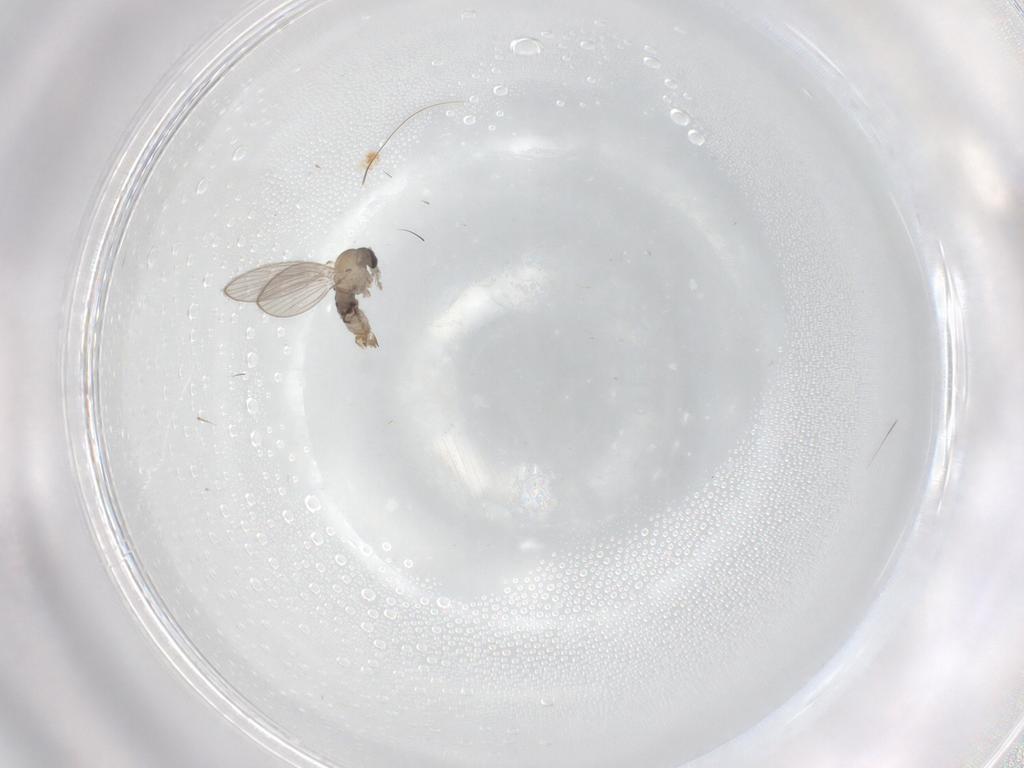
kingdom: Animalia
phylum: Arthropoda
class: Insecta
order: Diptera
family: Psychodidae
